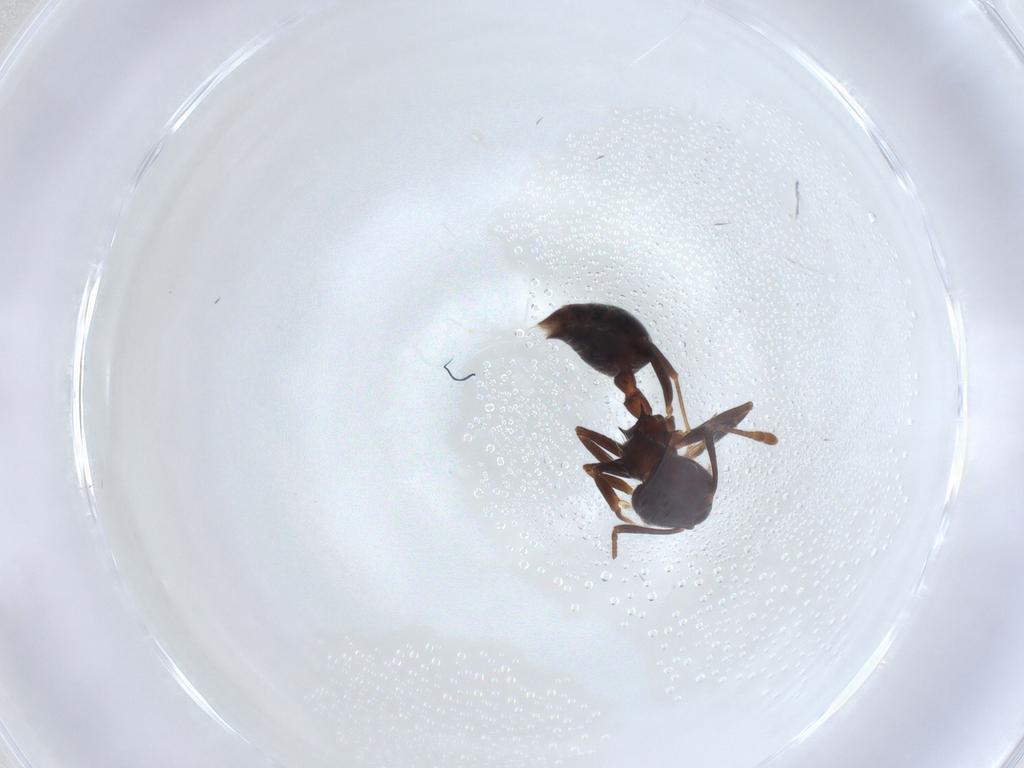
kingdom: Animalia
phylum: Arthropoda
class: Insecta
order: Hymenoptera
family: Formicidae
